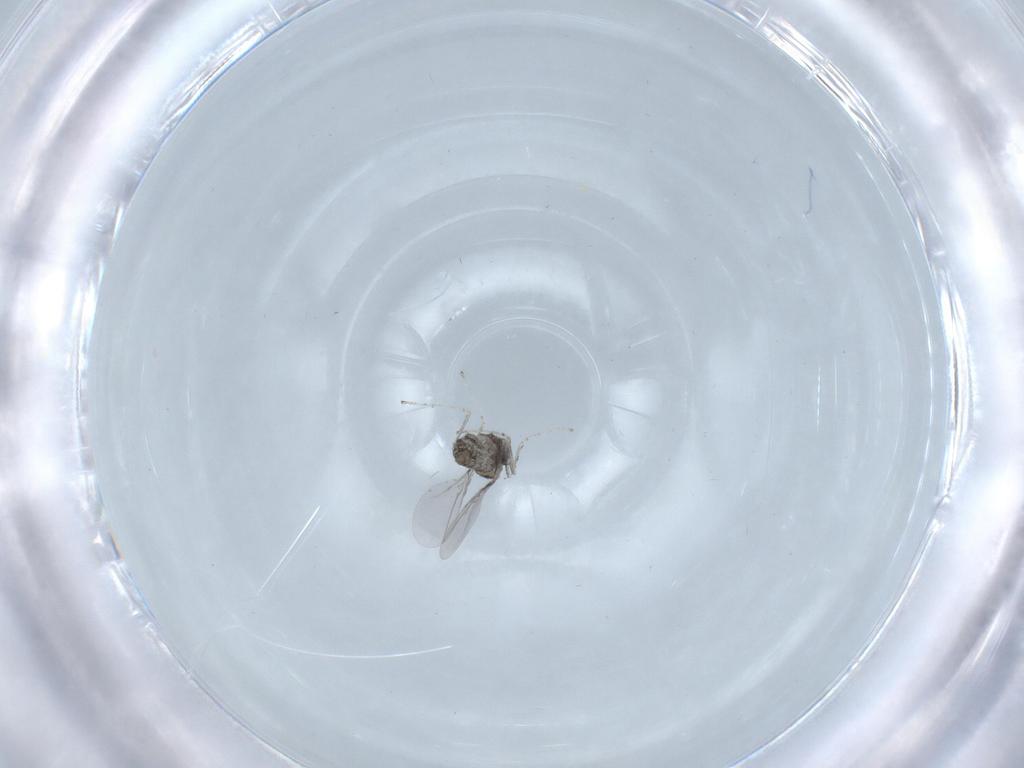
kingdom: Animalia
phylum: Arthropoda
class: Insecta
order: Diptera
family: Cecidomyiidae
